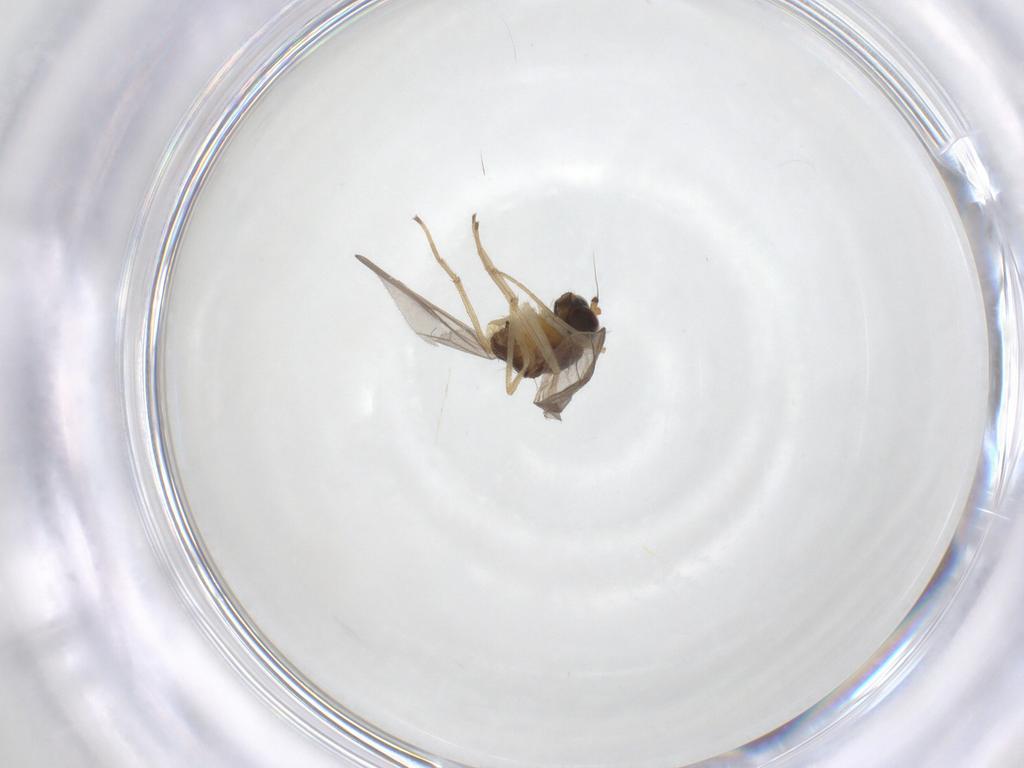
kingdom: Animalia
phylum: Arthropoda
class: Insecta
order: Diptera
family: Dolichopodidae
